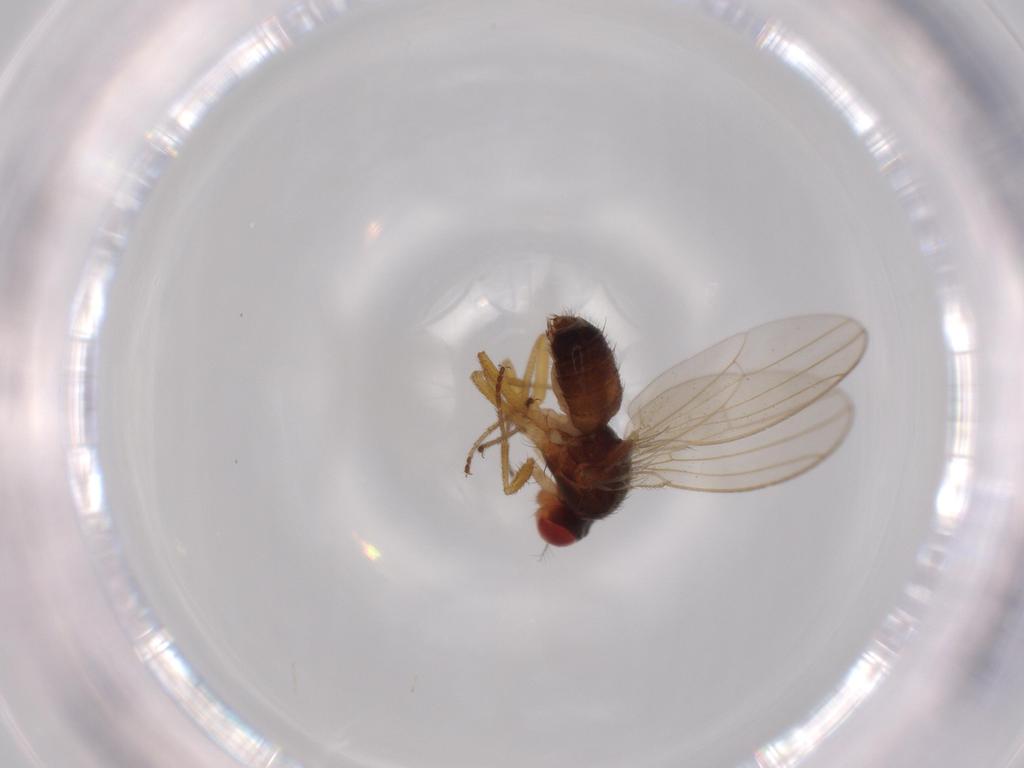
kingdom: Animalia
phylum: Arthropoda
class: Insecta
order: Diptera
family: Drosophilidae
